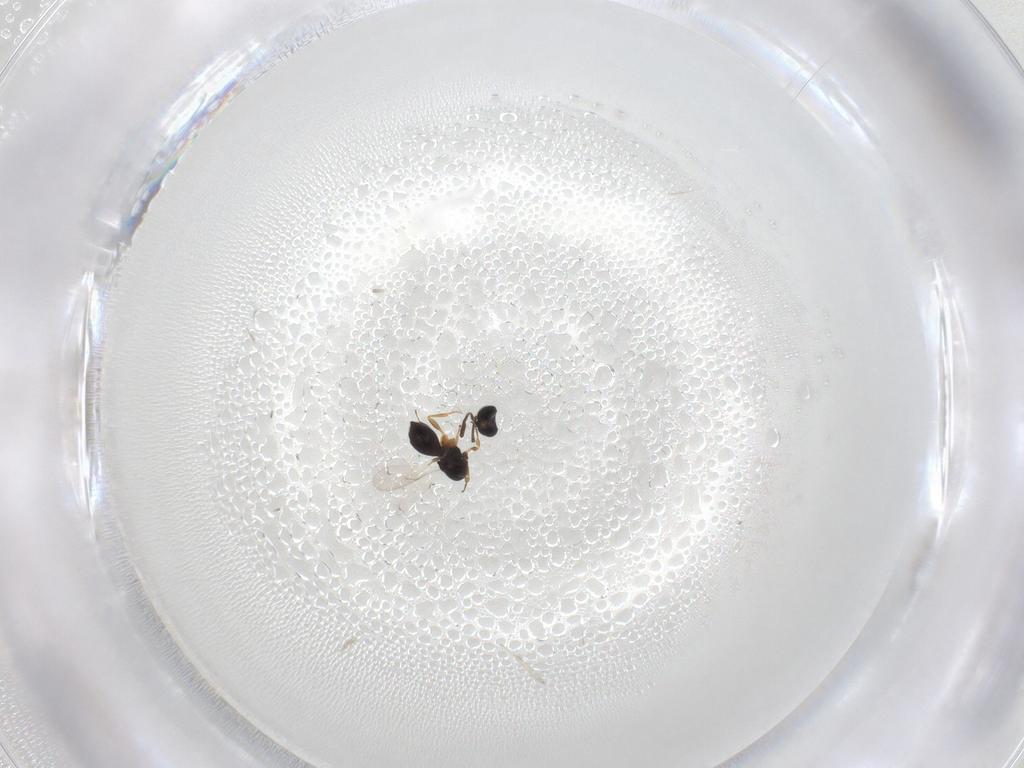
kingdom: Animalia
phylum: Arthropoda
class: Insecta
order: Hymenoptera
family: Scelionidae
